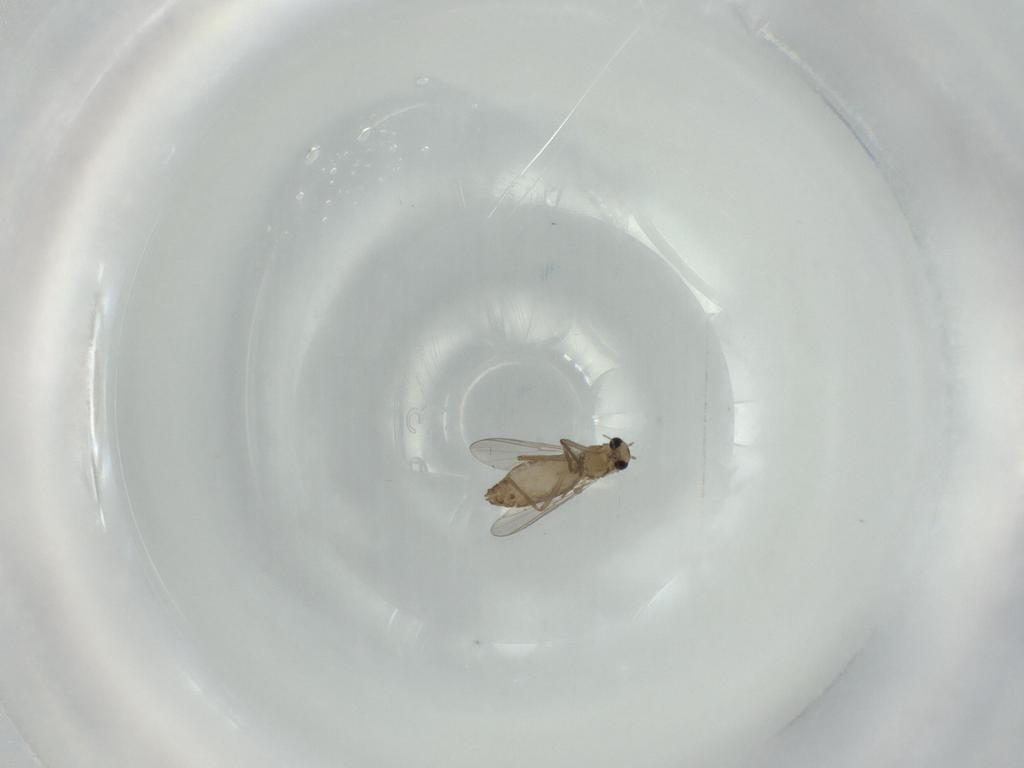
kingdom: Animalia
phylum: Arthropoda
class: Insecta
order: Diptera
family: Chironomidae
